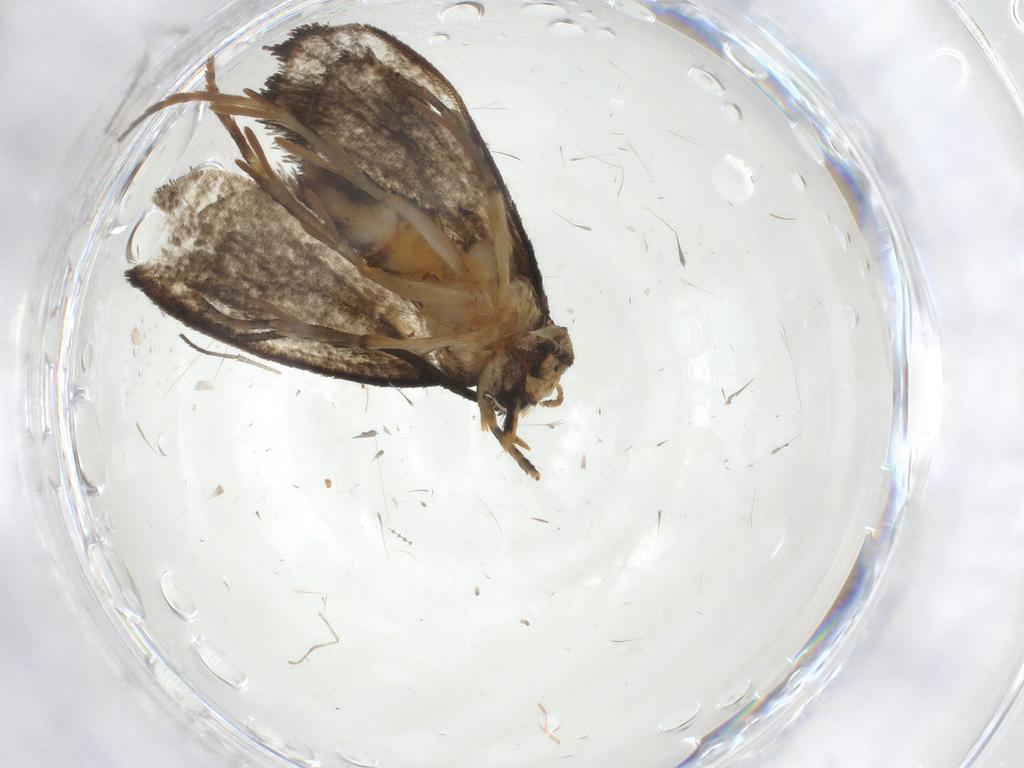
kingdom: Animalia
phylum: Arthropoda
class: Insecta
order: Lepidoptera
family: Tineidae
